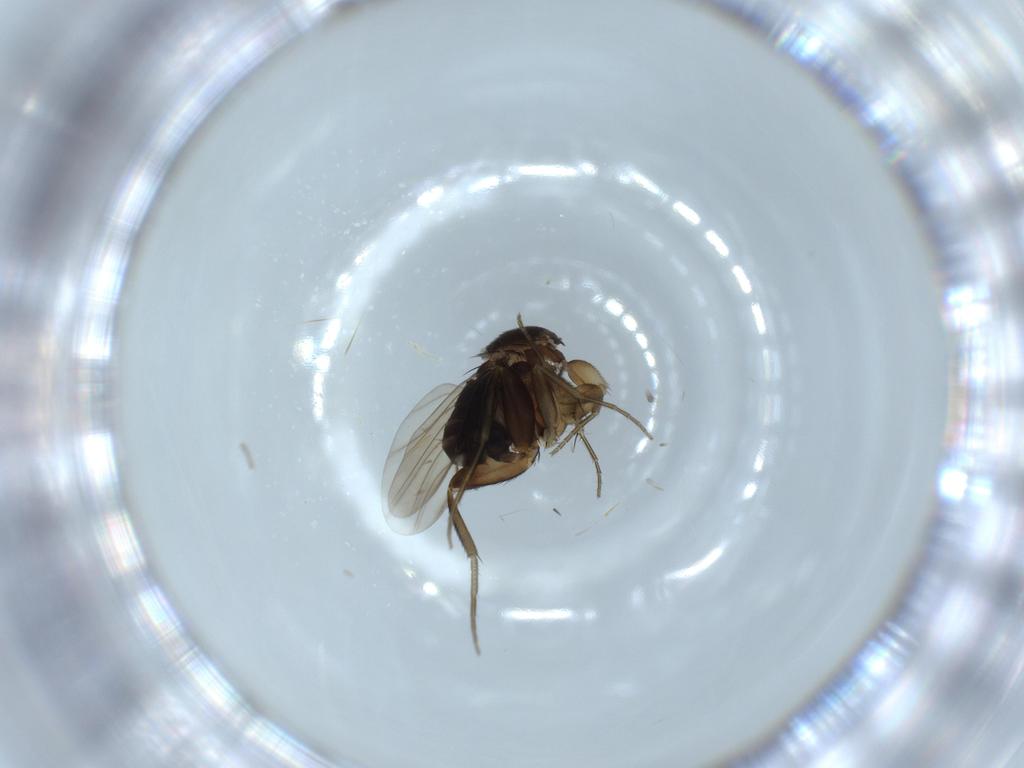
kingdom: Animalia
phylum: Arthropoda
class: Insecta
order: Diptera
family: Phoridae
